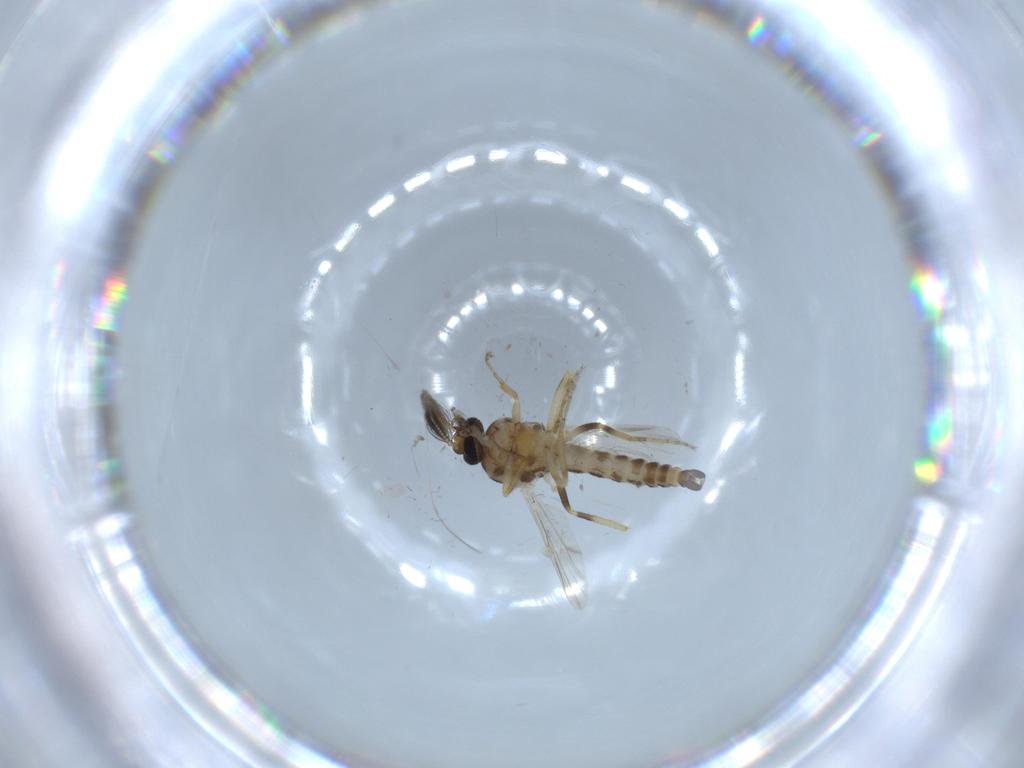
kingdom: Animalia
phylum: Arthropoda
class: Insecta
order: Diptera
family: Ceratopogonidae
